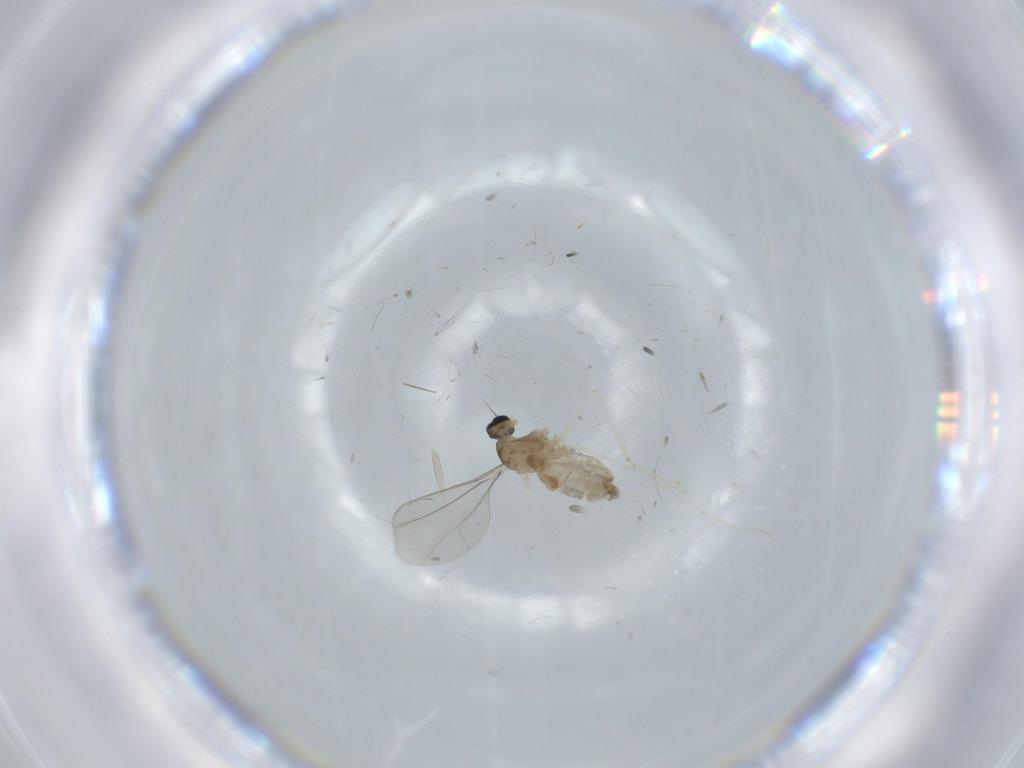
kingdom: Animalia
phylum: Arthropoda
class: Insecta
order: Diptera
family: Cecidomyiidae
